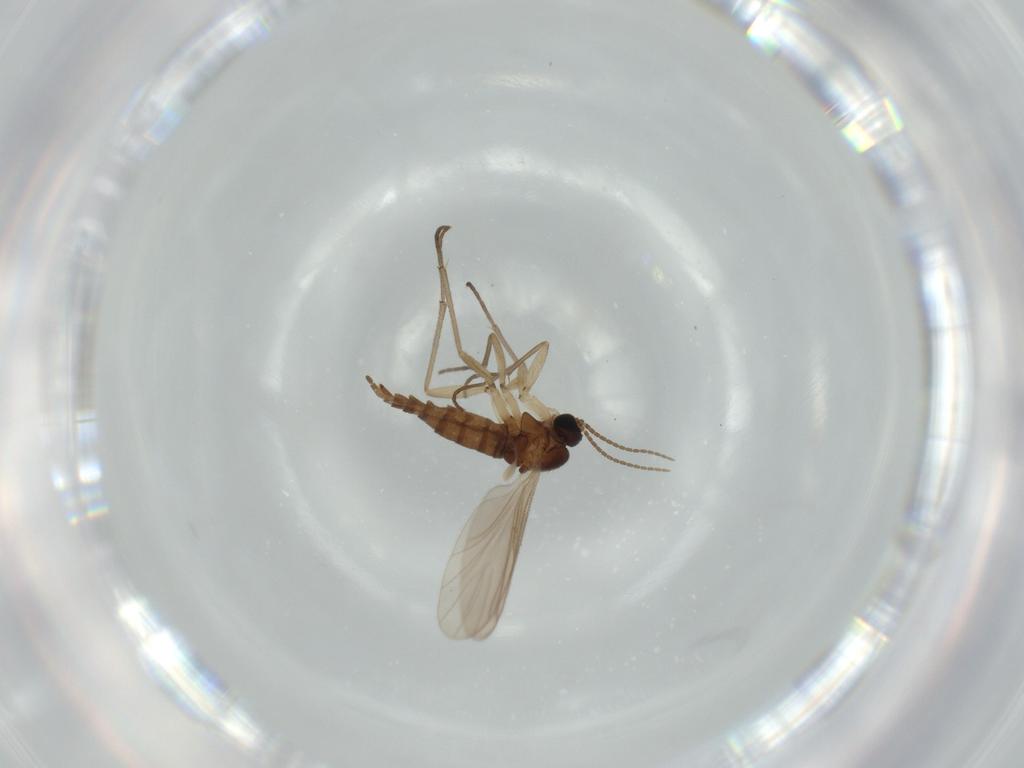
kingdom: Animalia
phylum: Arthropoda
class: Insecta
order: Diptera
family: Sciaridae
